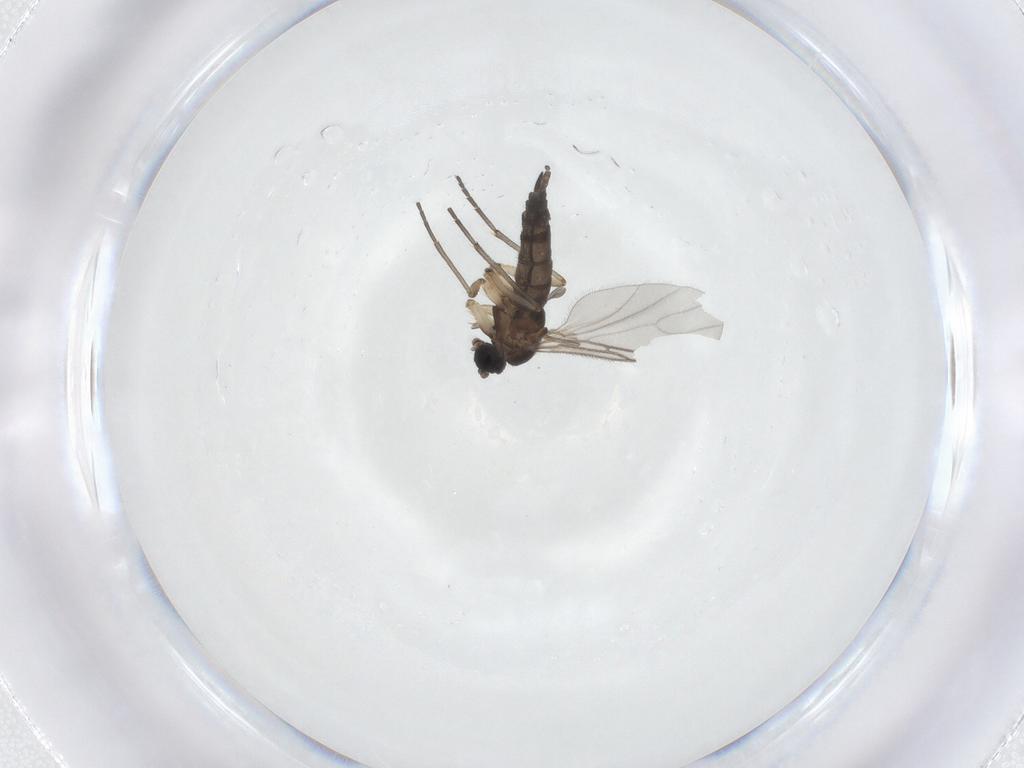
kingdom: Animalia
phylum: Arthropoda
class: Insecta
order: Diptera
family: Sciaridae
